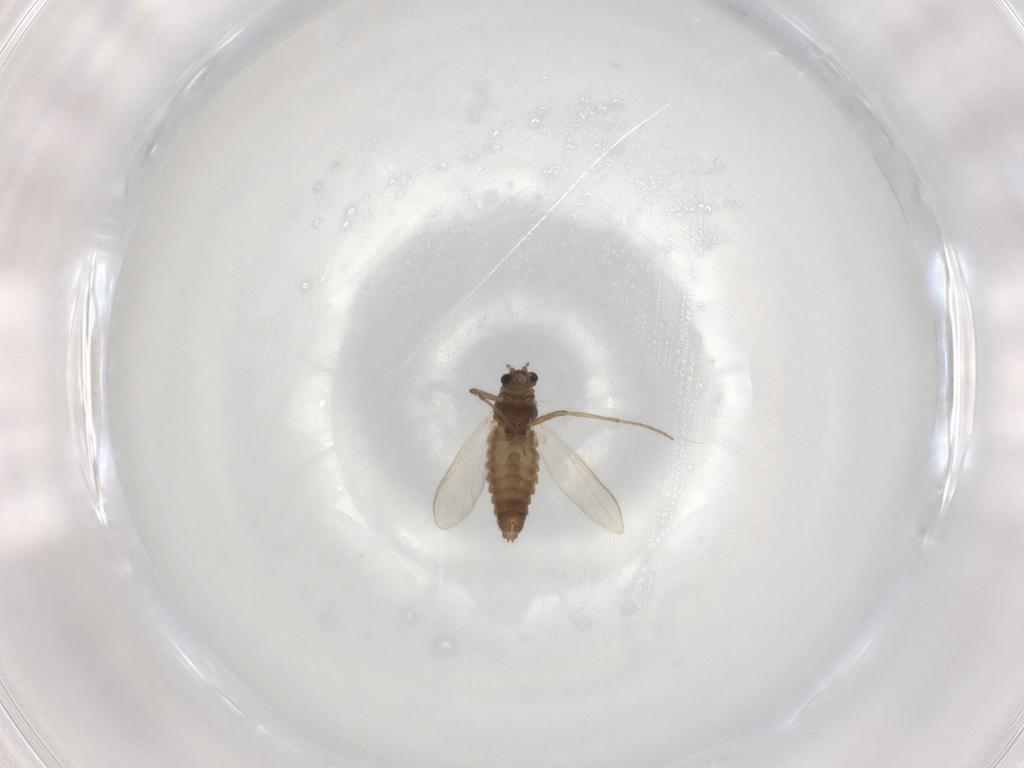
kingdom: Animalia
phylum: Arthropoda
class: Insecta
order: Diptera
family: Chironomidae
